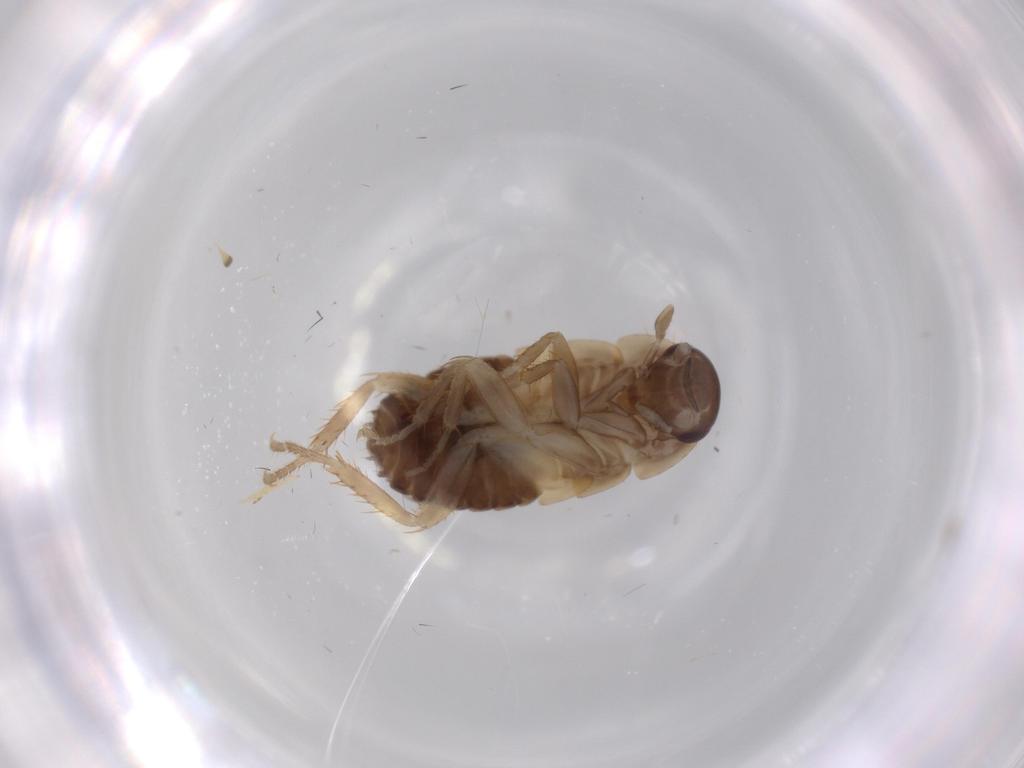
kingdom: Animalia
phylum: Arthropoda
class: Insecta
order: Blattodea
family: Ectobiidae
